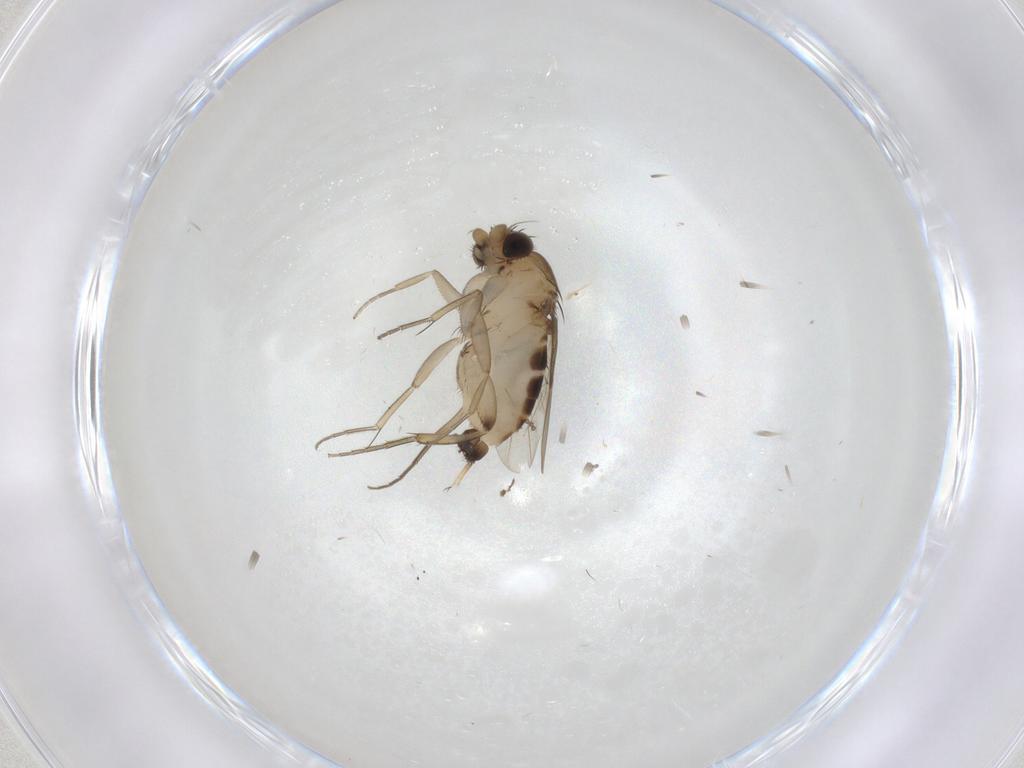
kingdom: Animalia
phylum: Arthropoda
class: Insecta
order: Diptera
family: Phoridae
